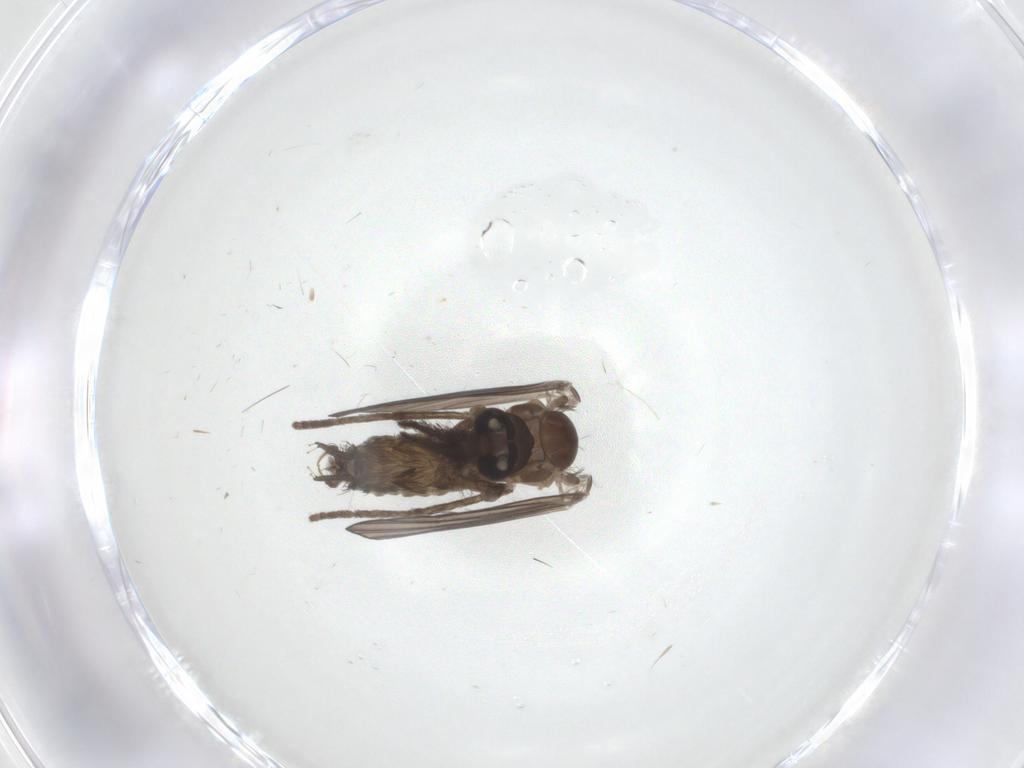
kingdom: Animalia
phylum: Arthropoda
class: Insecta
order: Diptera
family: Psychodidae
